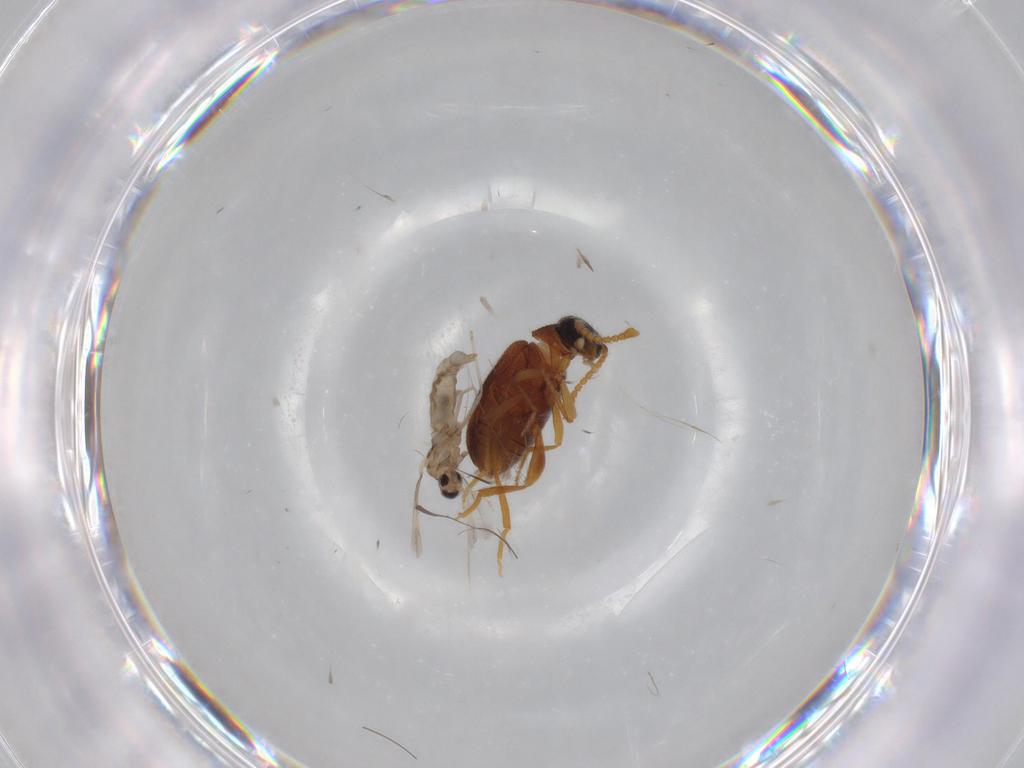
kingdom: Animalia
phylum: Arthropoda
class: Insecta
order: Coleoptera
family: Aderidae
